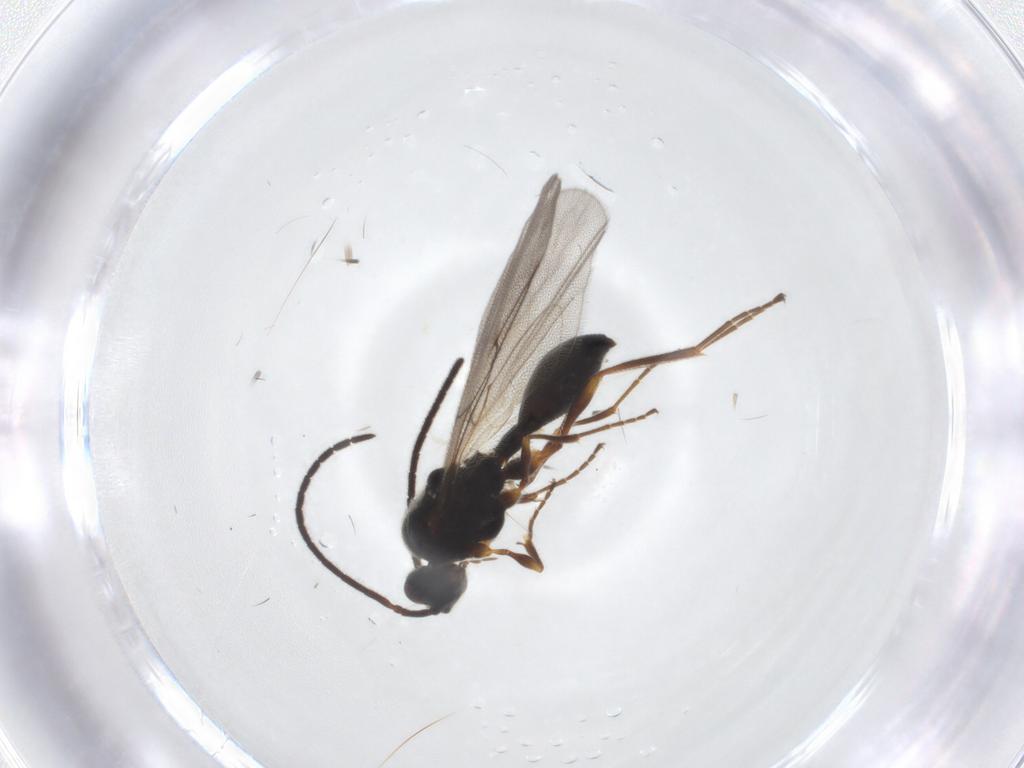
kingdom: Animalia
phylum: Arthropoda
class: Insecta
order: Hymenoptera
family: Diapriidae
